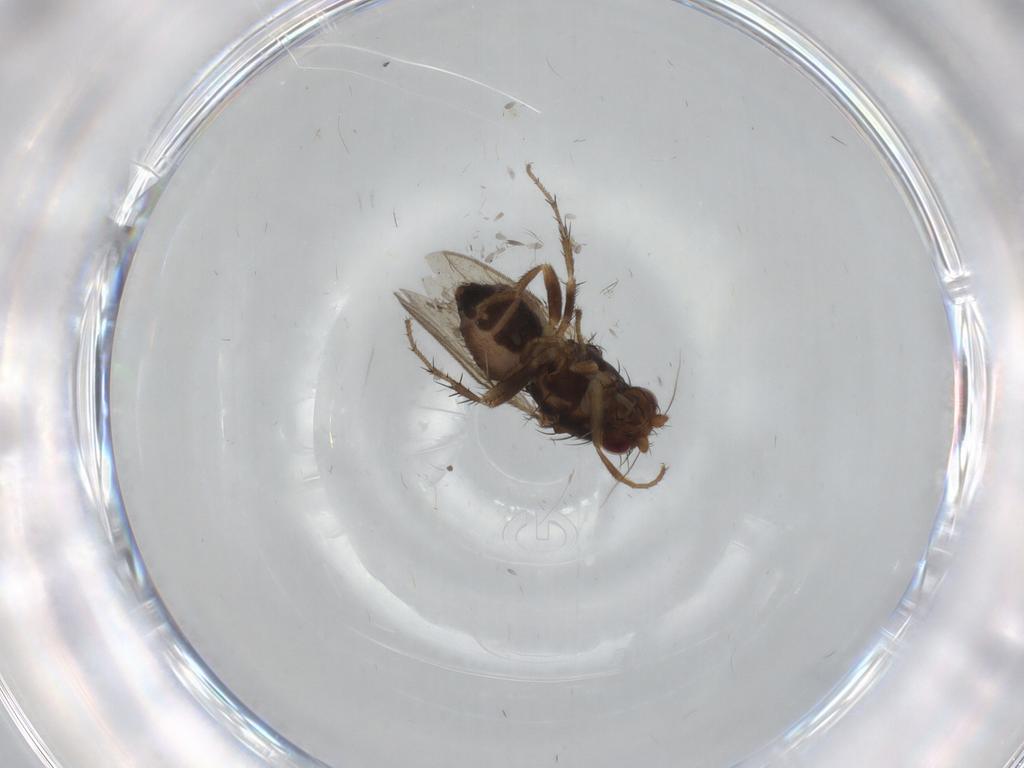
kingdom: Animalia
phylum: Arthropoda
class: Insecta
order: Diptera
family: Sphaeroceridae
